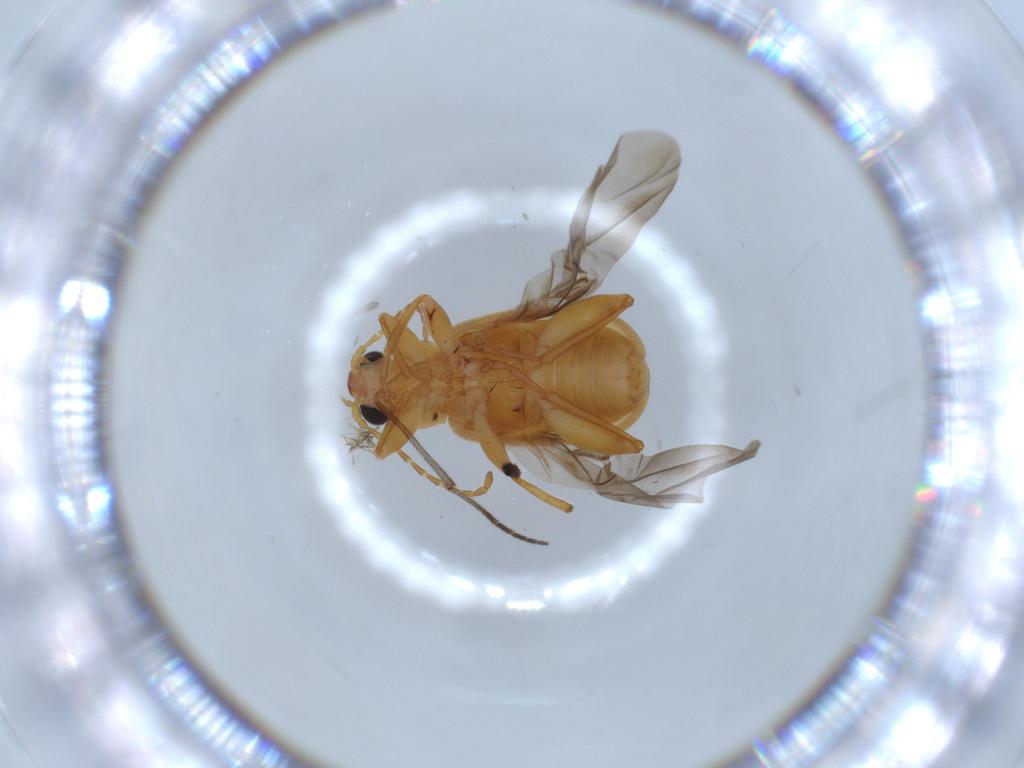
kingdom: Animalia
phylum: Arthropoda
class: Insecta
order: Coleoptera
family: Chrysomelidae
